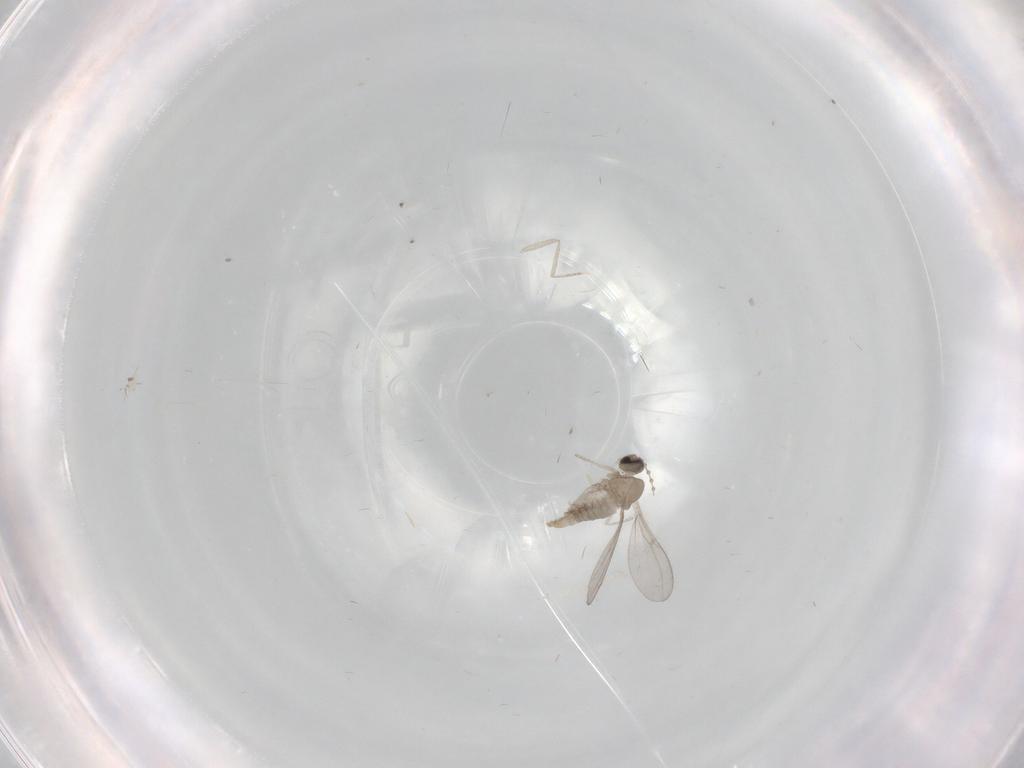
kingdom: Animalia
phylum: Arthropoda
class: Insecta
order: Diptera
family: Cecidomyiidae
